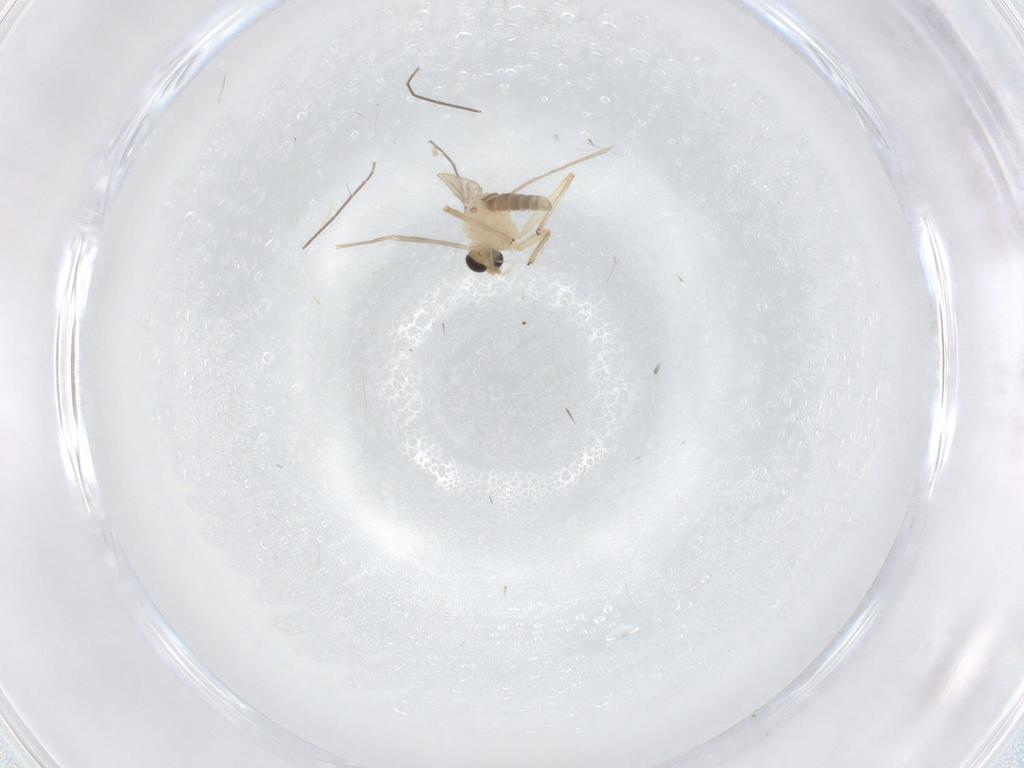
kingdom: Animalia
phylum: Arthropoda
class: Insecta
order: Diptera
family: Chironomidae
